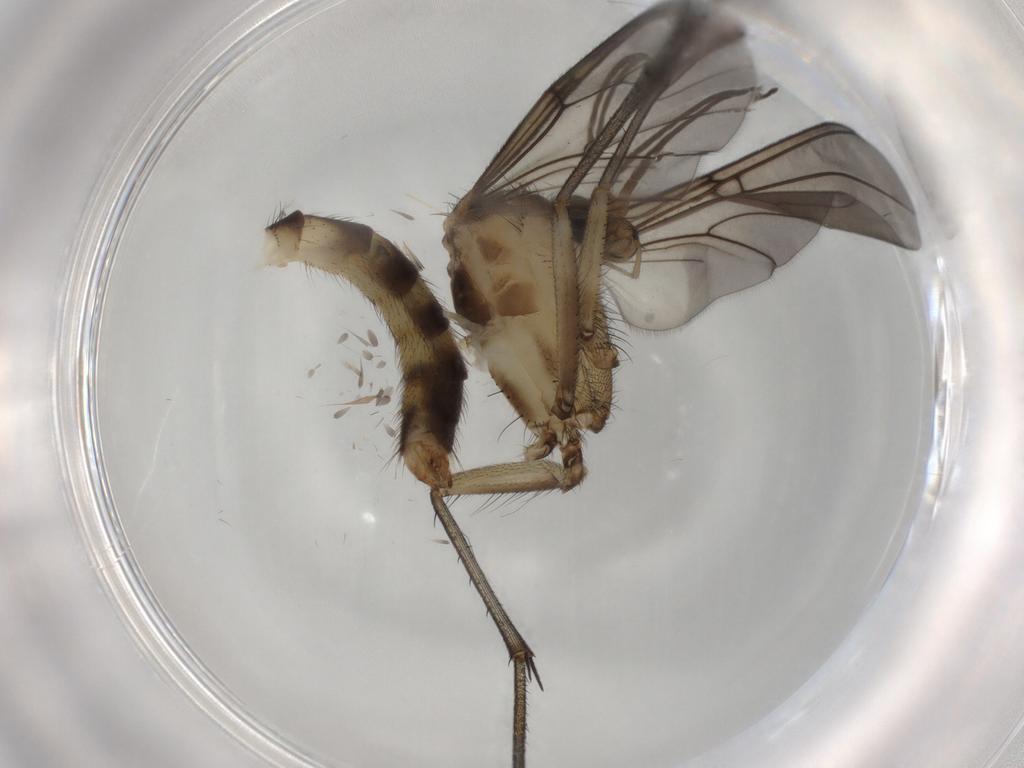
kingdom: Animalia
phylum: Arthropoda
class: Insecta
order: Diptera
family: Mycetophilidae
